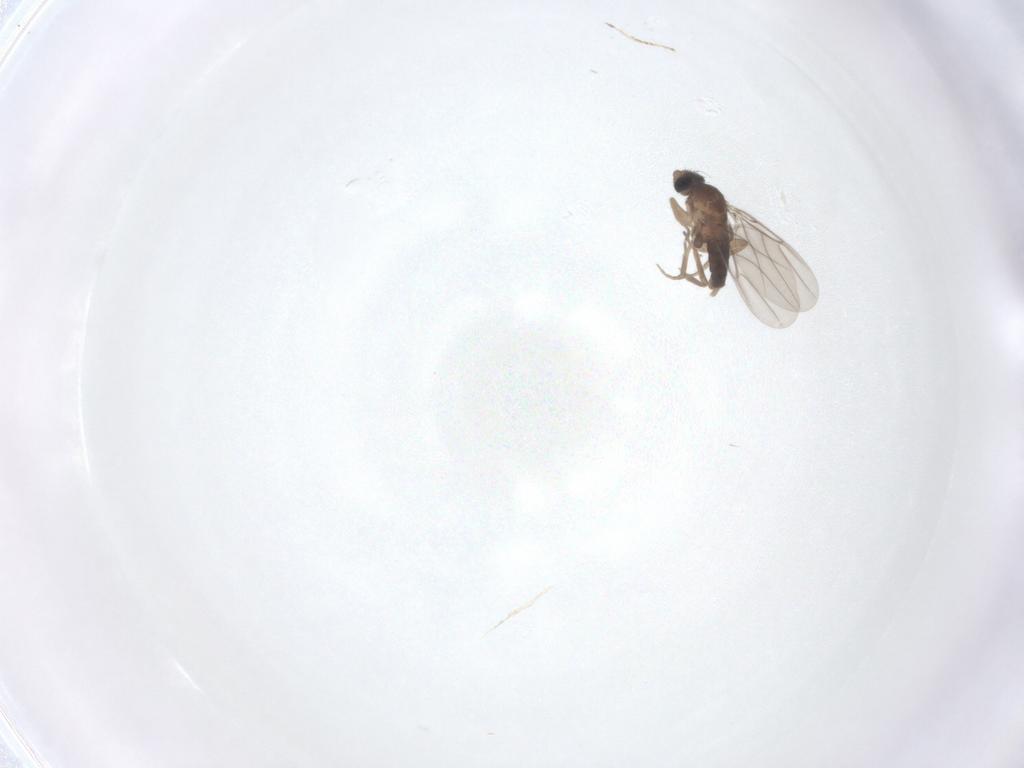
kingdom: Animalia
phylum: Arthropoda
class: Insecta
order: Diptera
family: Phoridae
